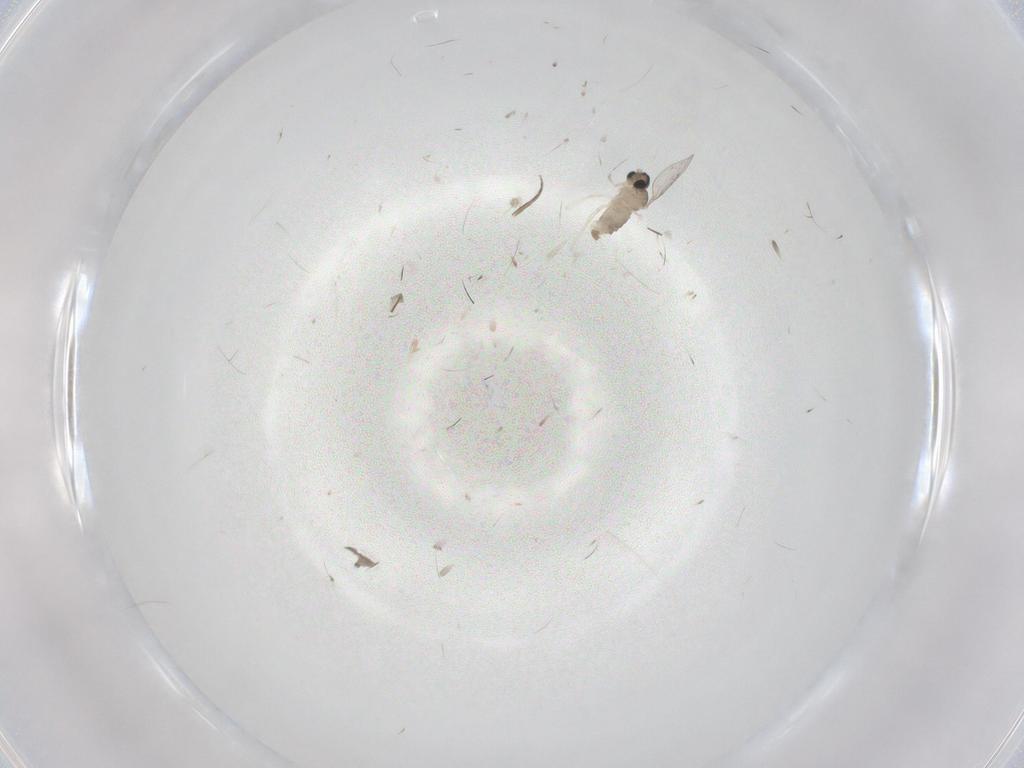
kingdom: Animalia
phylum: Arthropoda
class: Insecta
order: Diptera
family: Cecidomyiidae
